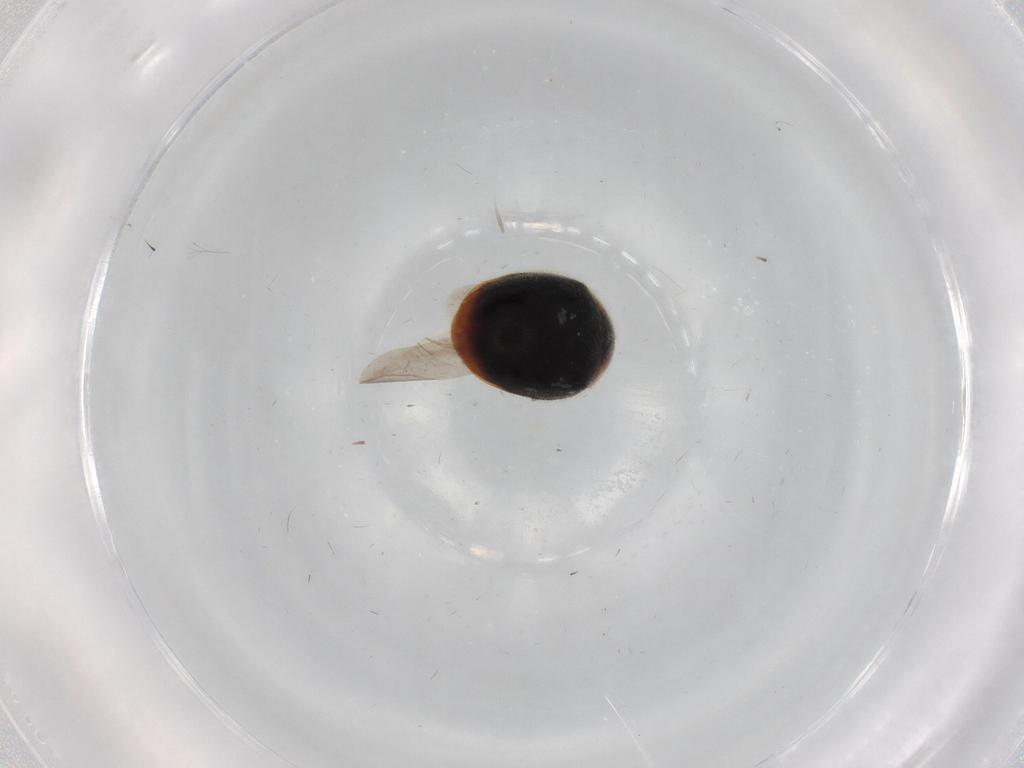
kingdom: Animalia
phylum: Arthropoda
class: Insecta
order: Coleoptera
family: Chrysomelidae
